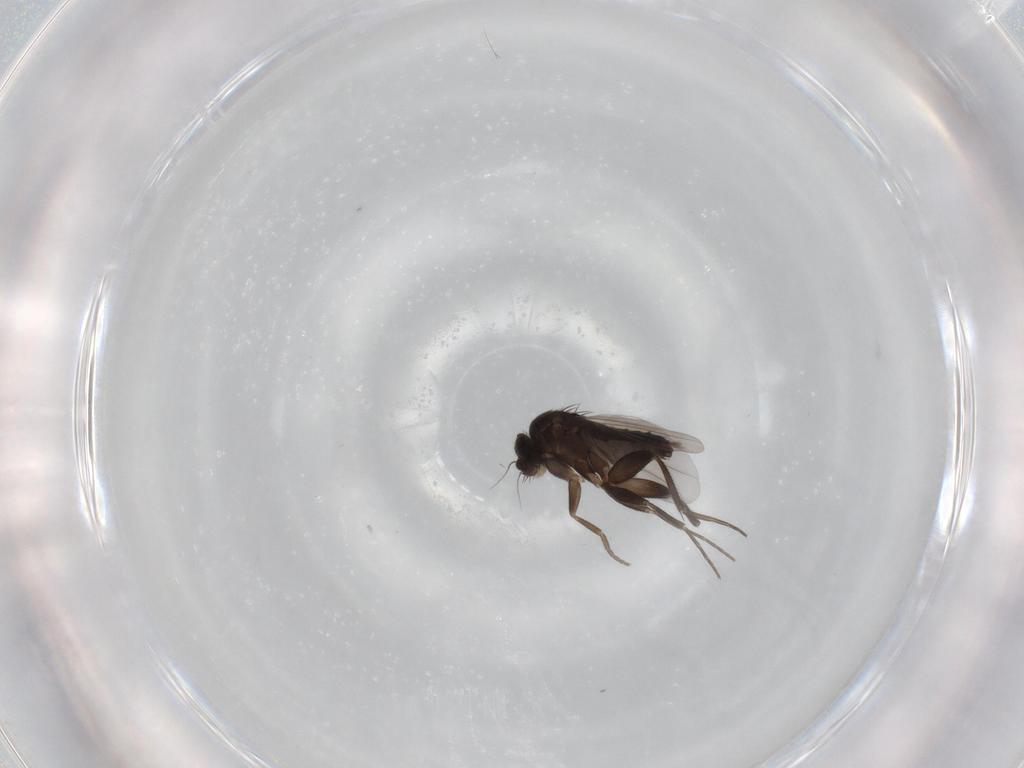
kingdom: Animalia
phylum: Arthropoda
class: Insecta
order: Diptera
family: Phoridae
